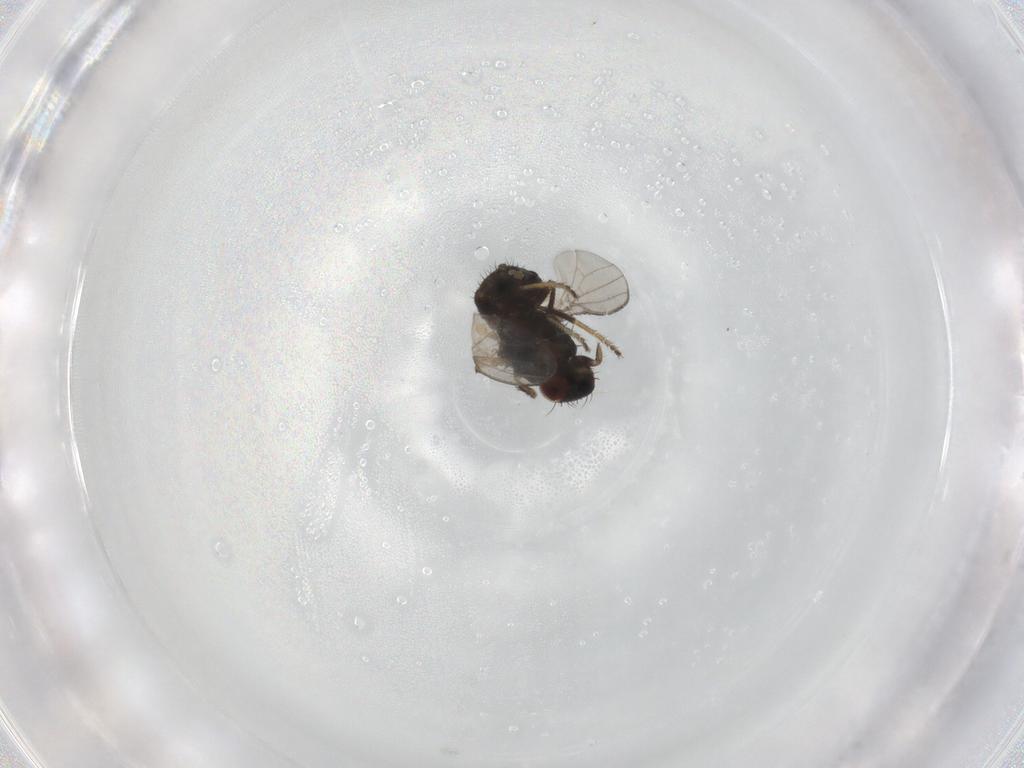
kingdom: Animalia
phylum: Arthropoda
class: Insecta
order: Diptera
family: Milichiidae
